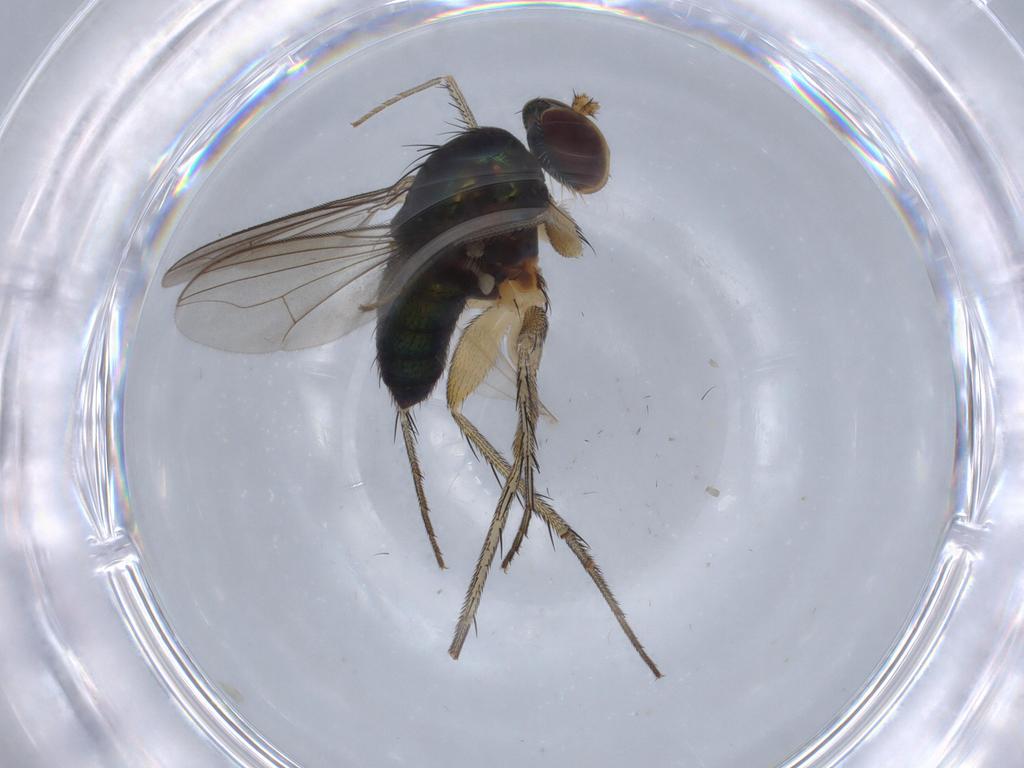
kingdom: Animalia
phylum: Arthropoda
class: Insecta
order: Diptera
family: Dolichopodidae
